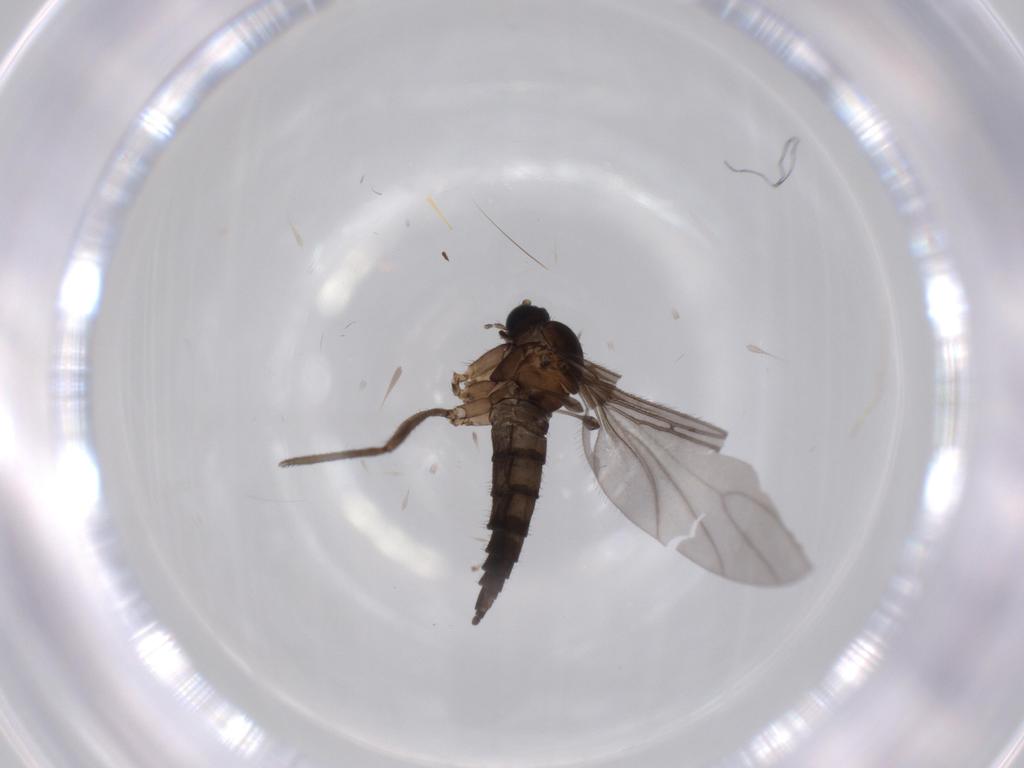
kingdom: Animalia
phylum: Arthropoda
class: Insecta
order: Diptera
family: Sciaridae
